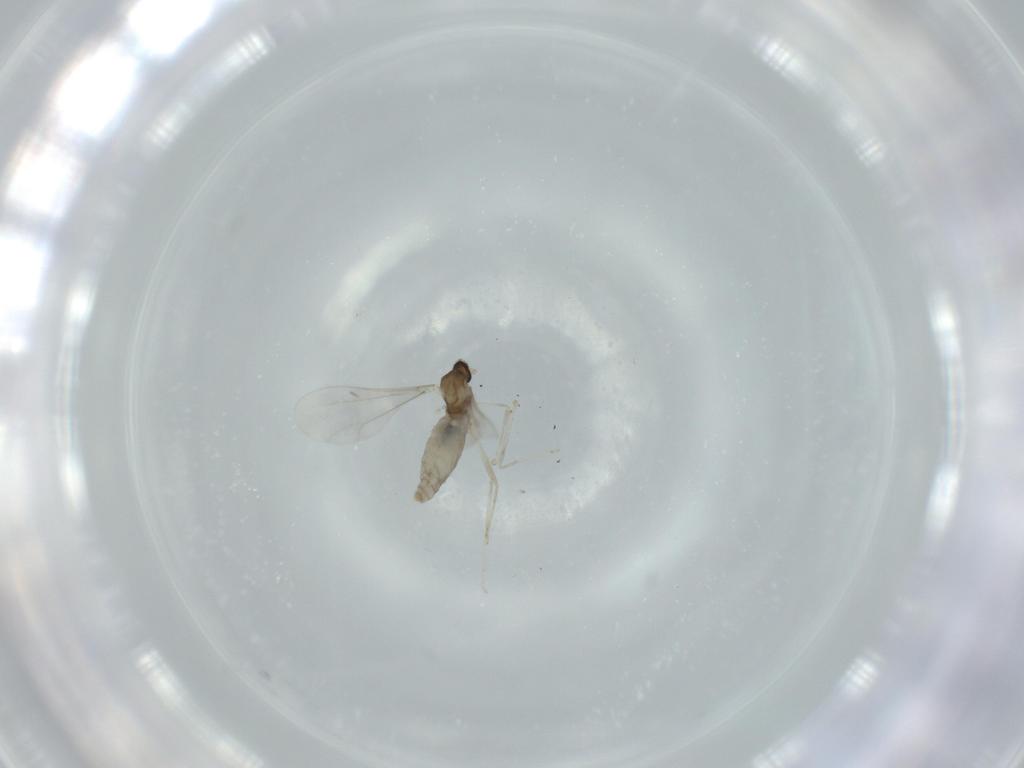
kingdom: Animalia
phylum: Arthropoda
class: Insecta
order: Diptera
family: Cecidomyiidae
